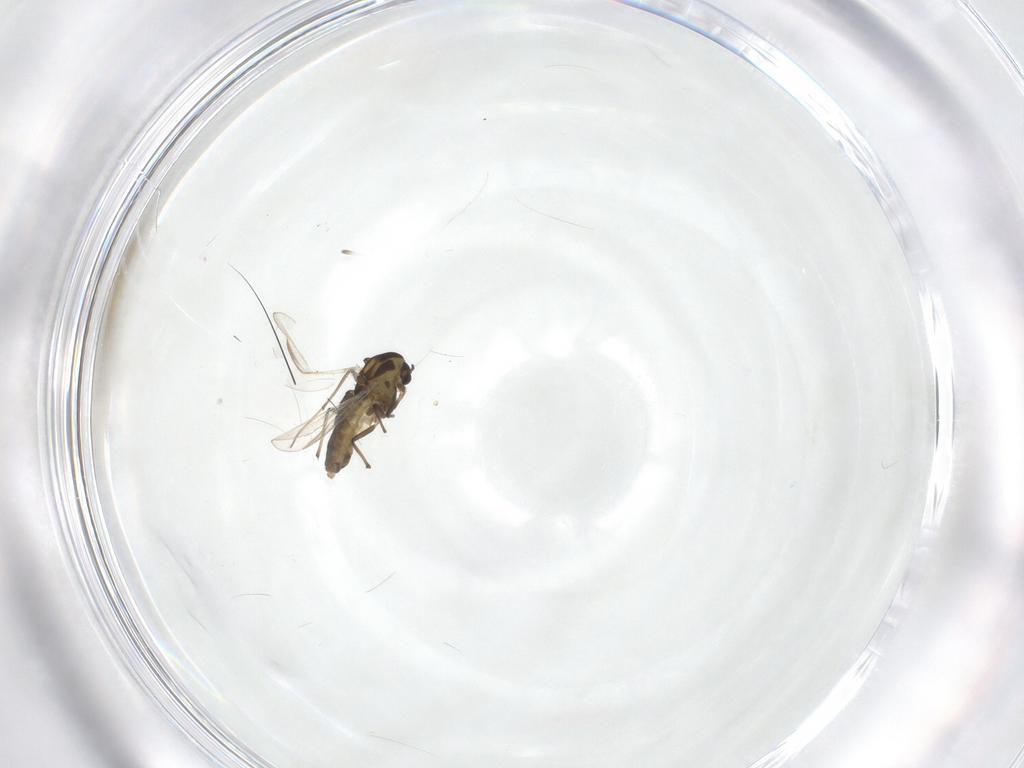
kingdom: Animalia
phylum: Arthropoda
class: Insecta
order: Diptera
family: Chironomidae
